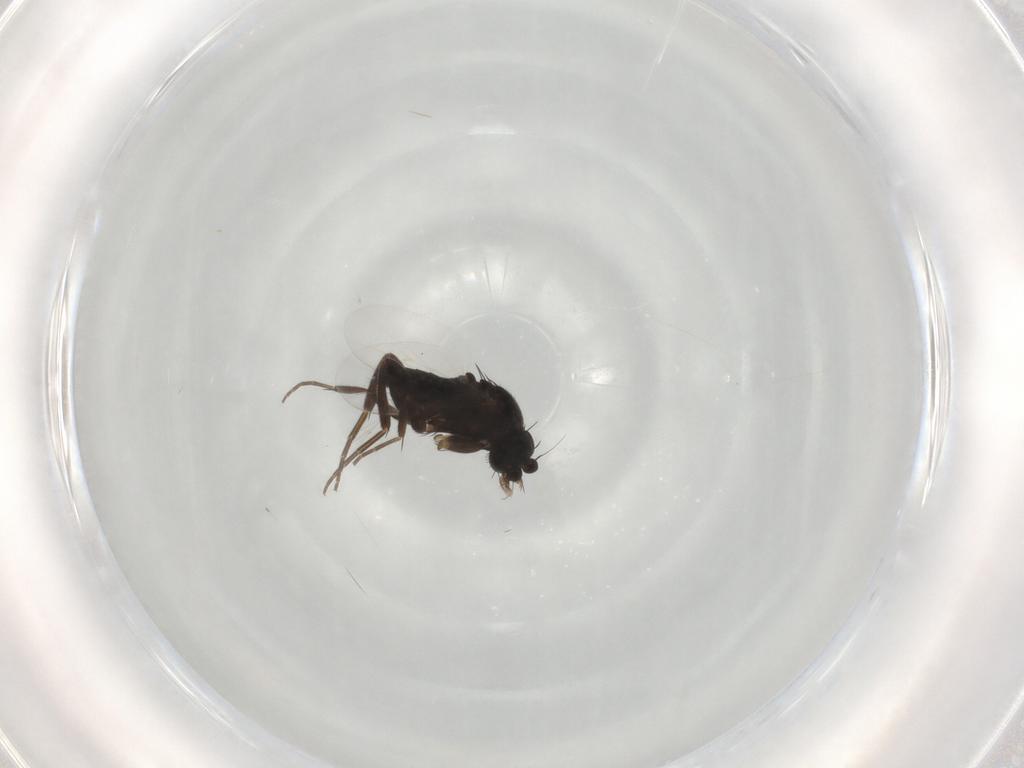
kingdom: Animalia
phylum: Arthropoda
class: Insecta
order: Diptera
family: Phoridae
